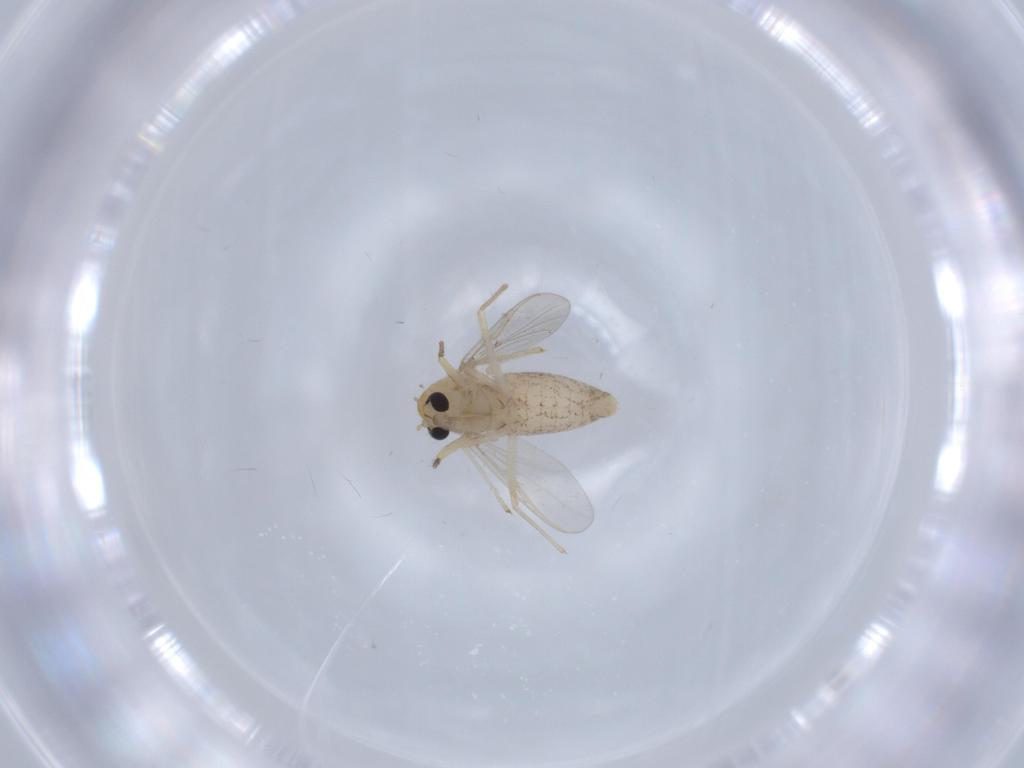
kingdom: Animalia
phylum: Arthropoda
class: Insecta
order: Diptera
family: Chironomidae
